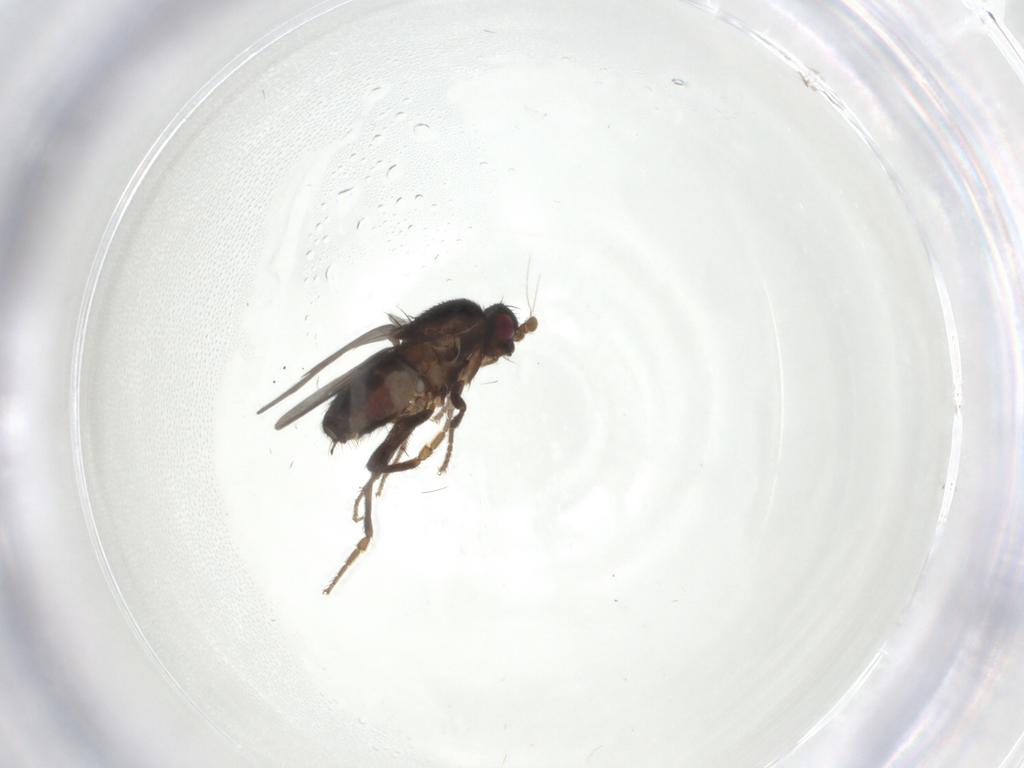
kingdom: Animalia
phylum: Arthropoda
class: Insecta
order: Diptera
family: Sphaeroceridae
